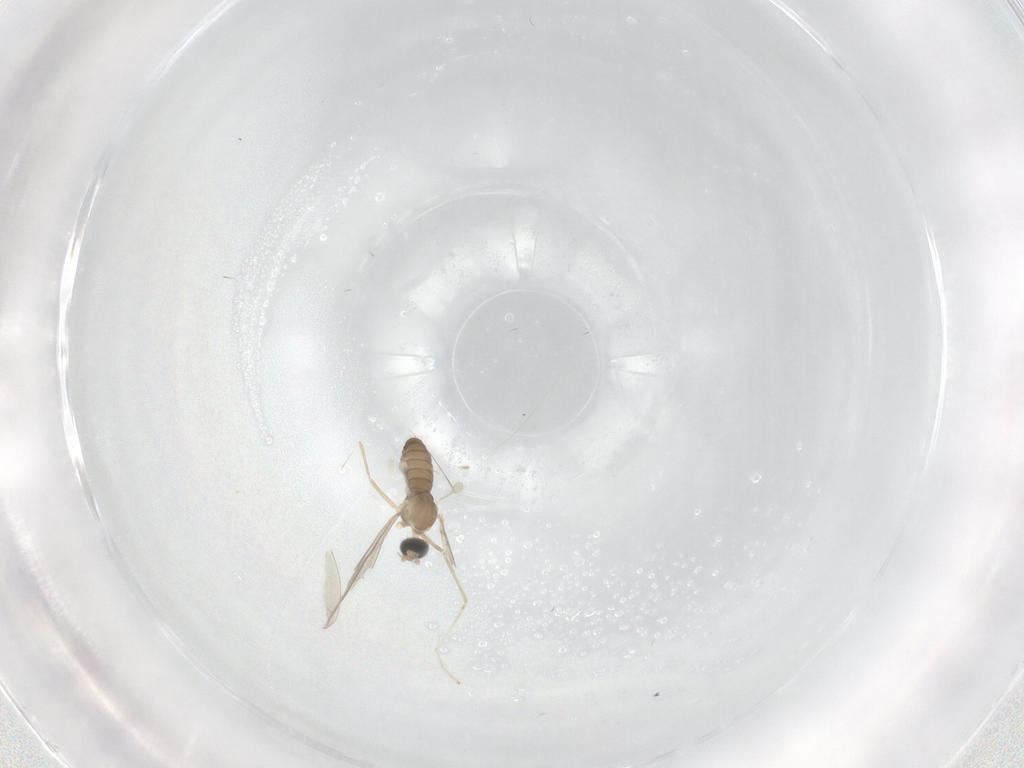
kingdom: Animalia
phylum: Arthropoda
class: Insecta
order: Diptera
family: Cecidomyiidae
